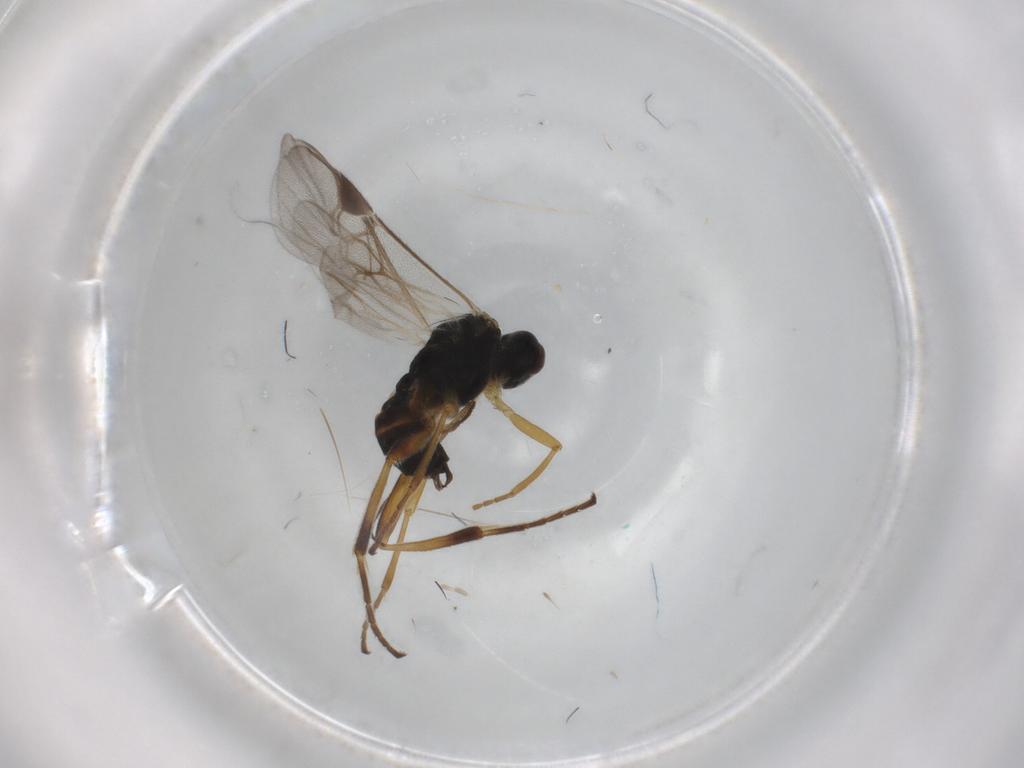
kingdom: Animalia
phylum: Arthropoda
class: Insecta
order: Hymenoptera
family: Braconidae
